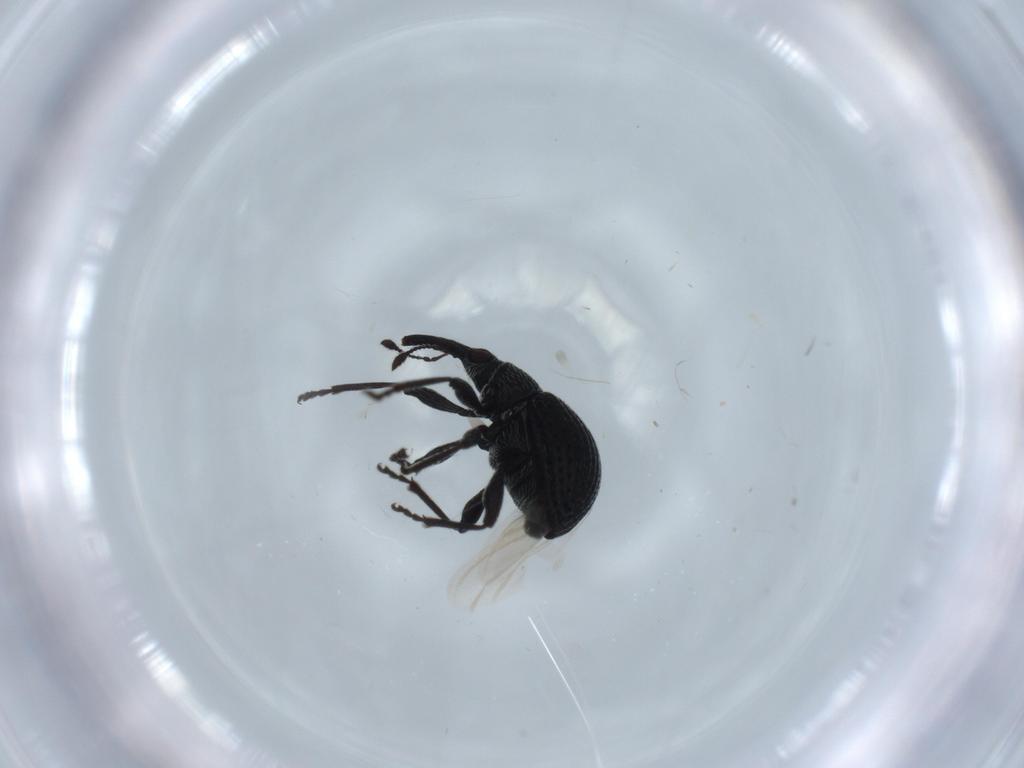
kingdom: Animalia
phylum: Arthropoda
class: Insecta
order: Coleoptera
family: Brentidae
